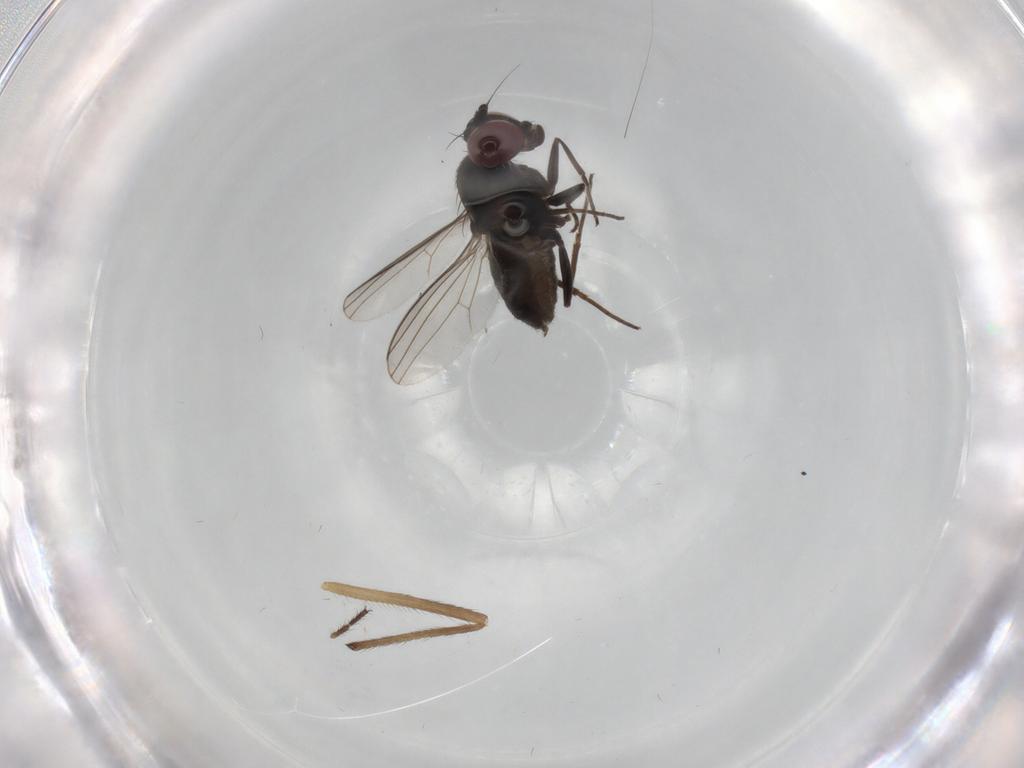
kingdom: Animalia
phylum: Arthropoda
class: Insecta
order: Diptera
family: Dolichopodidae
